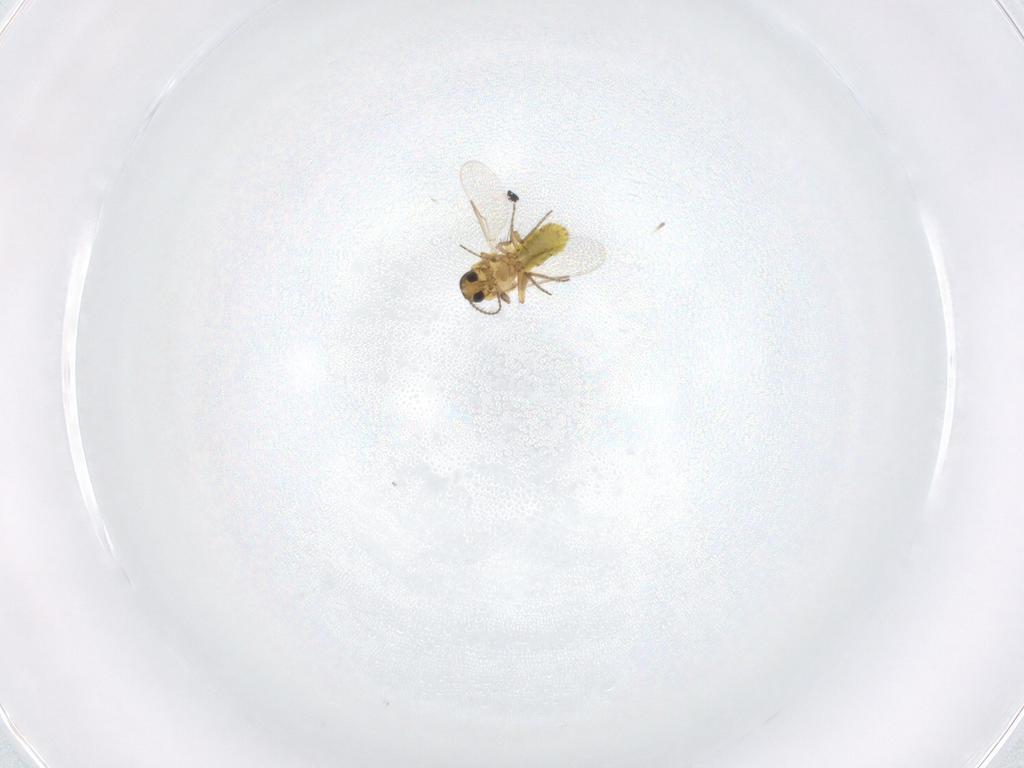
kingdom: Animalia
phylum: Arthropoda
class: Insecta
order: Diptera
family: Ceratopogonidae
